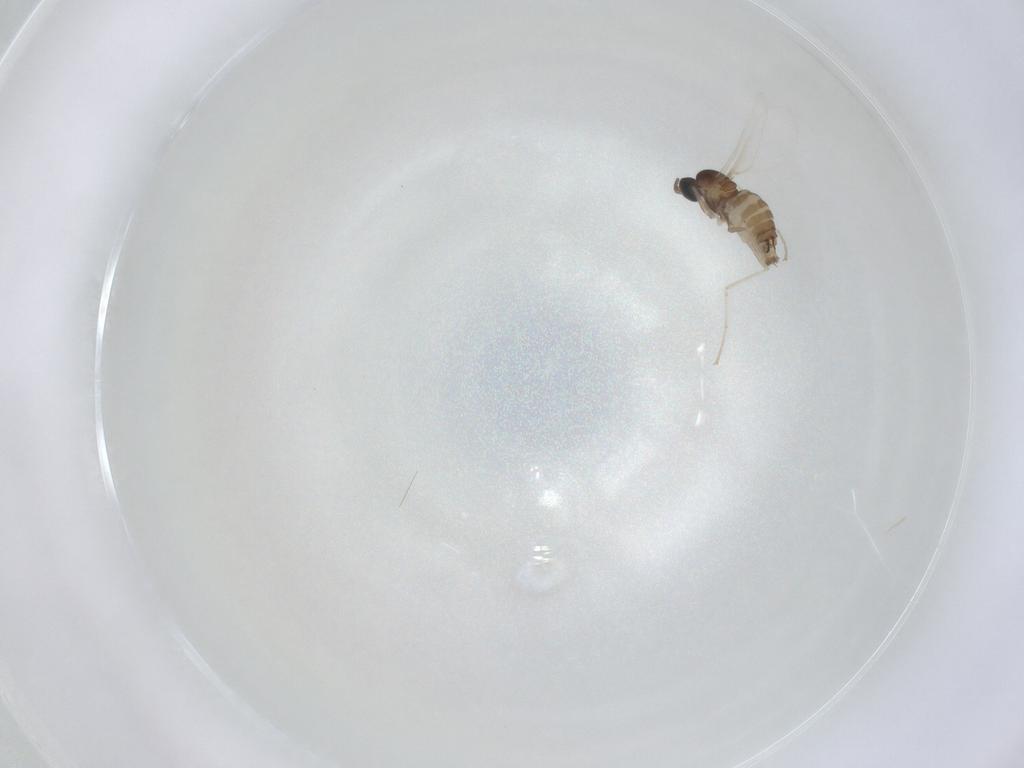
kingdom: Animalia
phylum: Arthropoda
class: Insecta
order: Diptera
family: Cecidomyiidae
